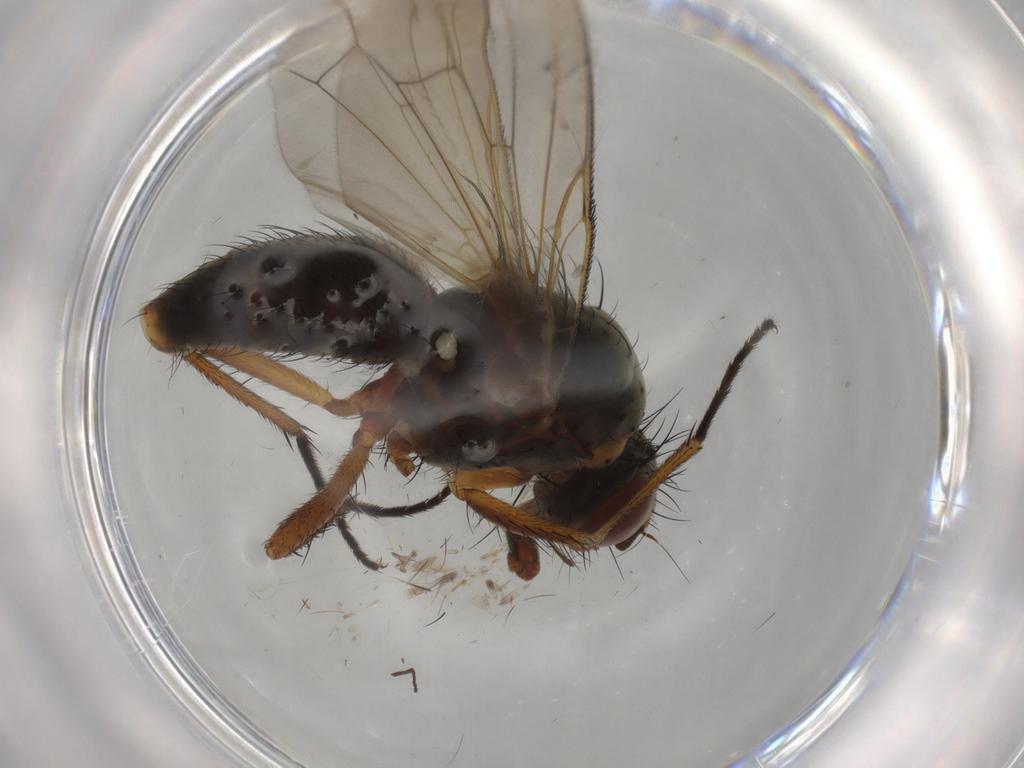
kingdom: Animalia
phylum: Arthropoda
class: Insecta
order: Diptera
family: Anthomyiidae
